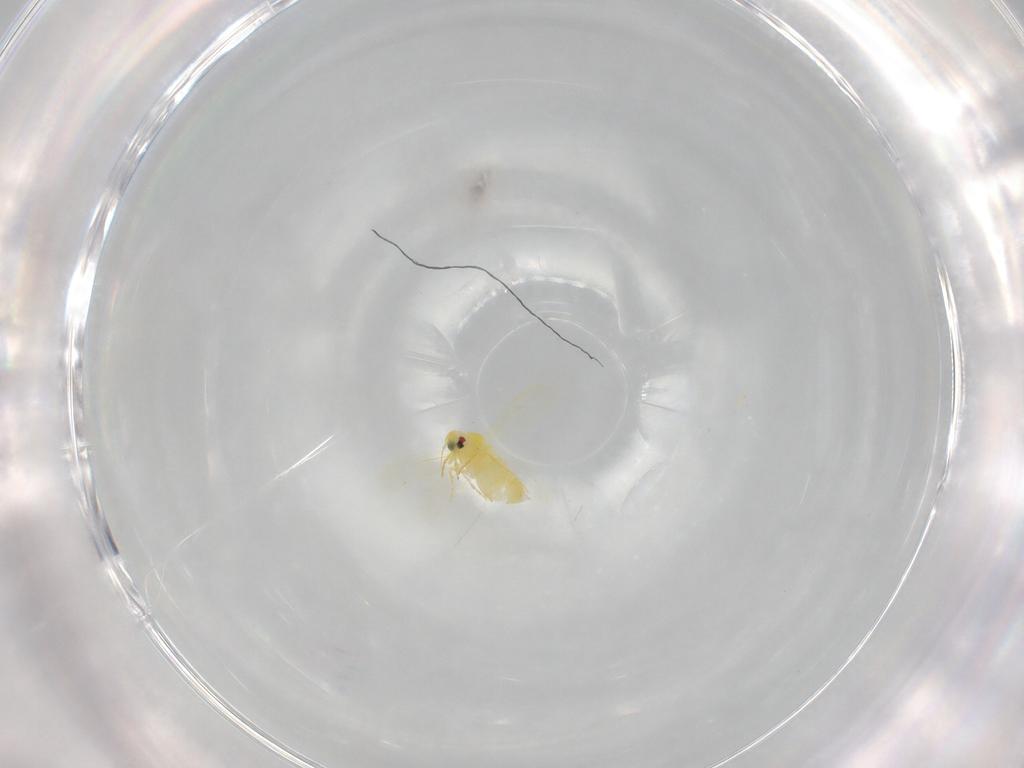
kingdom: Animalia
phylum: Arthropoda
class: Insecta
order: Hemiptera
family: Aleyrodidae
